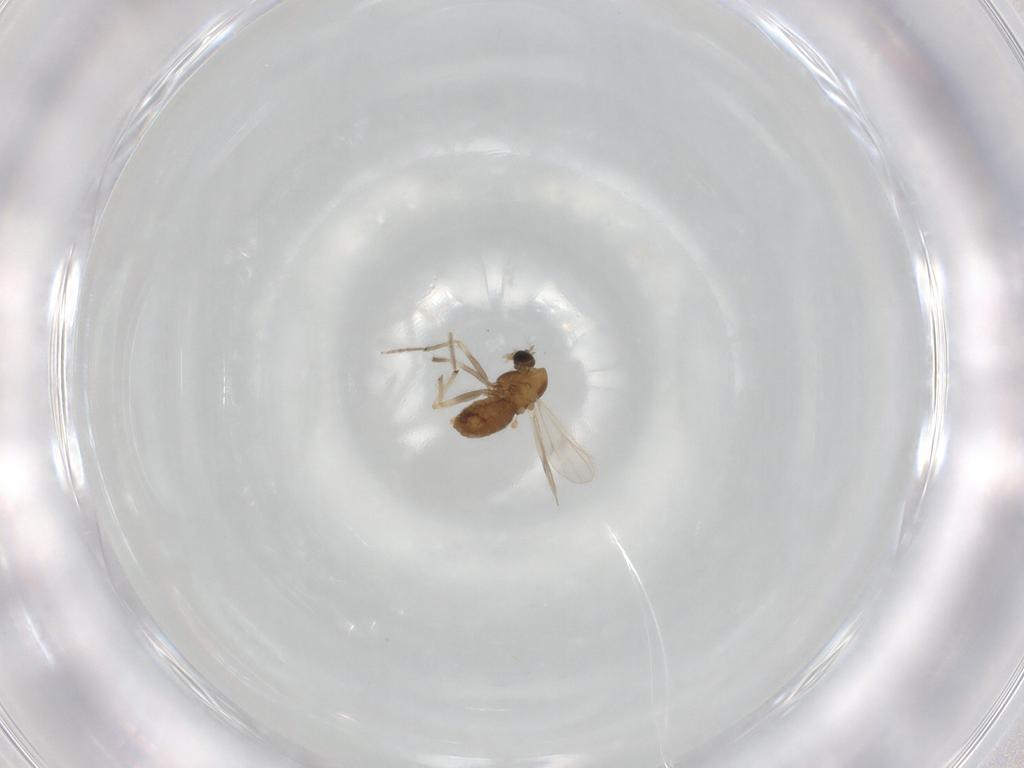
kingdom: Animalia
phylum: Arthropoda
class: Insecta
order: Diptera
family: Chironomidae
